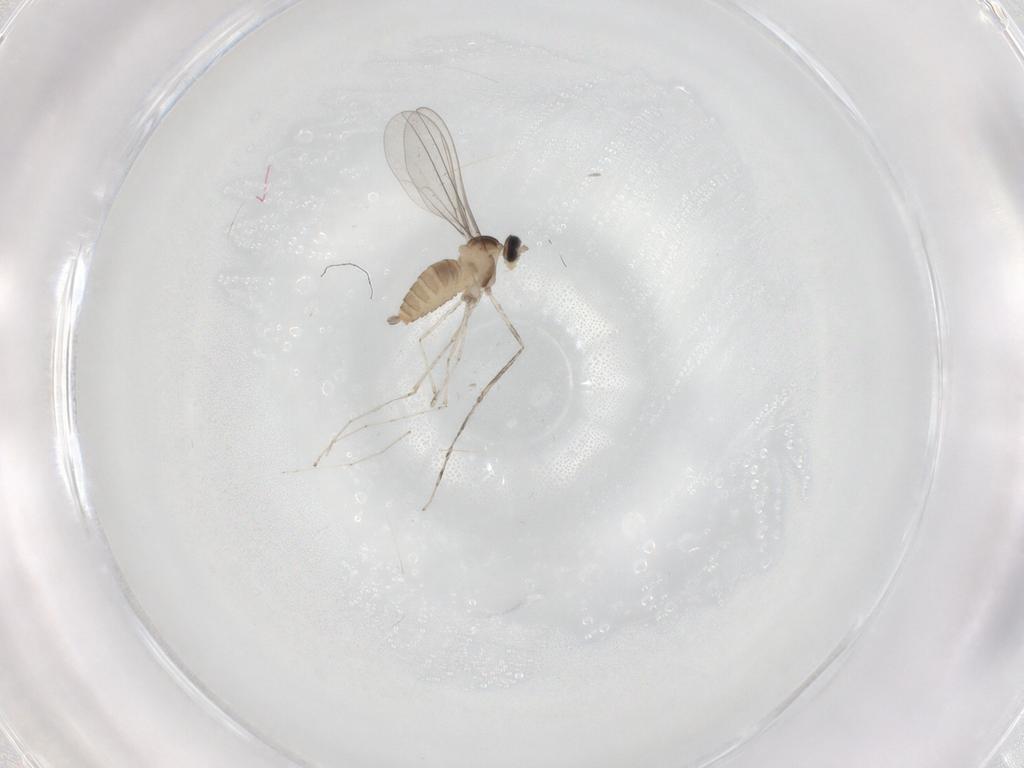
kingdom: Animalia
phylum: Arthropoda
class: Insecta
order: Diptera
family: Cecidomyiidae
